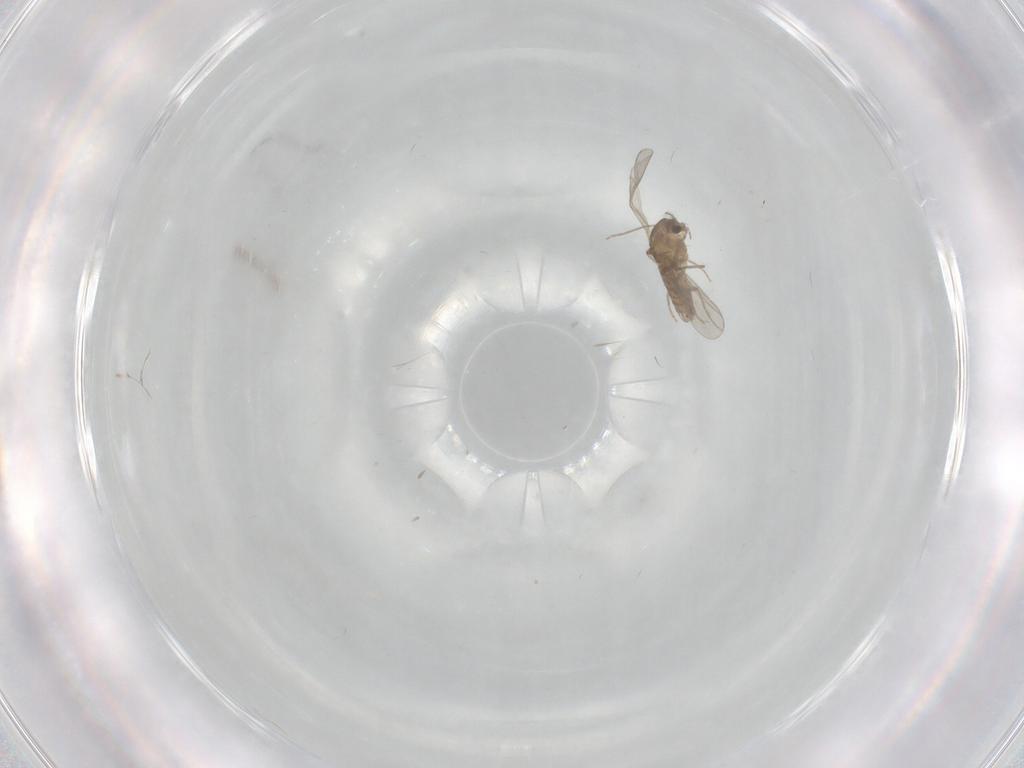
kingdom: Animalia
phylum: Arthropoda
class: Insecta
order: Diptera
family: Chironomidae
